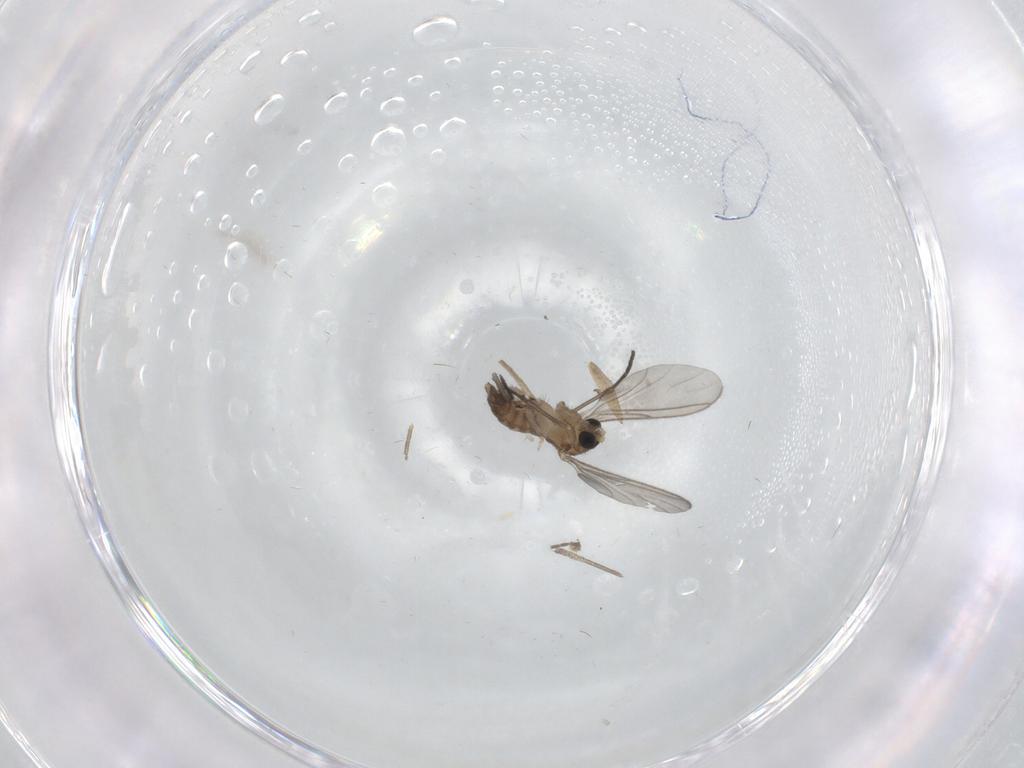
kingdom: Animalia
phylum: Arthropoda
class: Insecta
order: Diptera
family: Sciaridae
